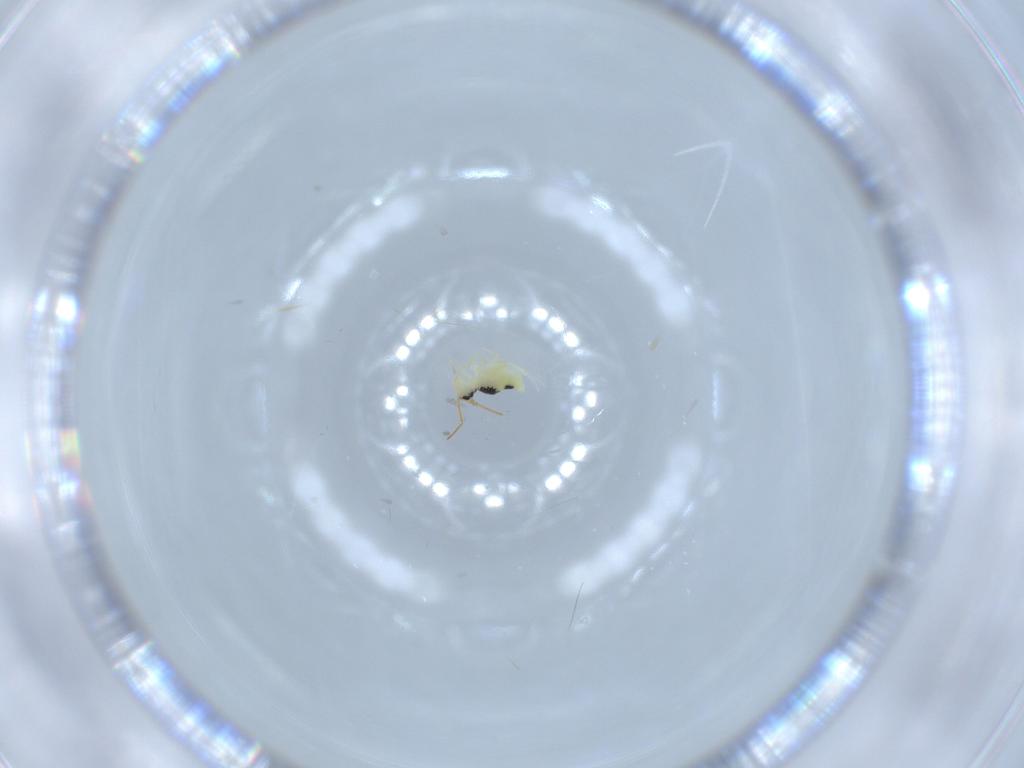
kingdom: Animalia
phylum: Arthropoda
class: Collembola
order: Symphypleona
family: Bourletiellidae
